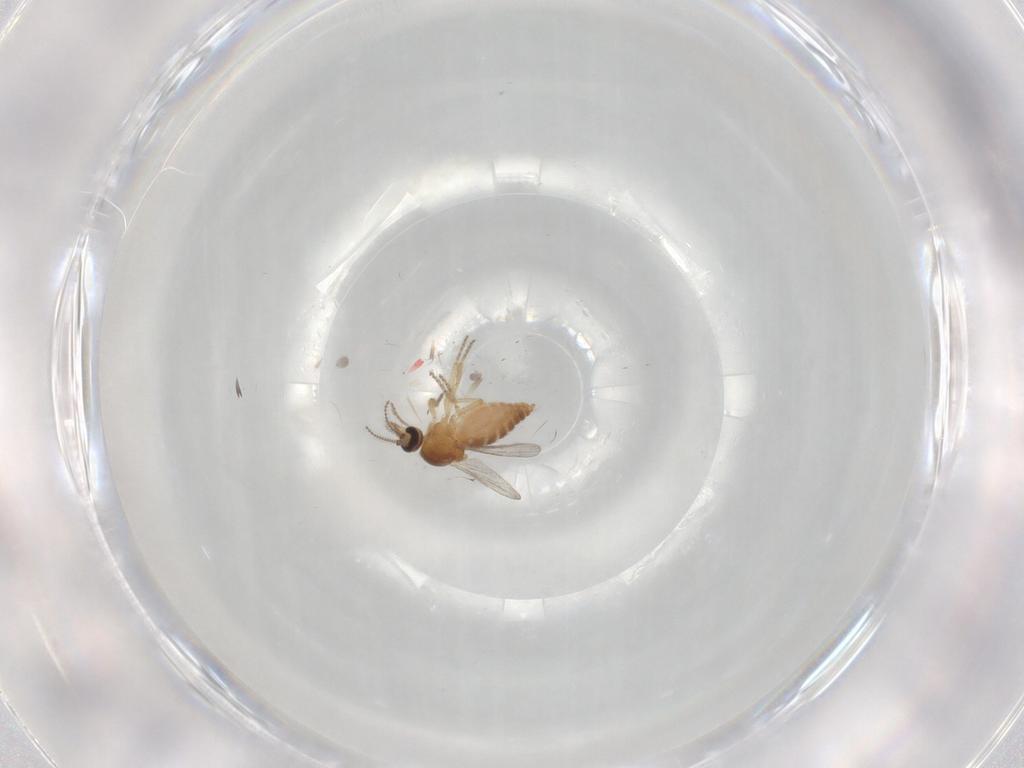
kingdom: Animalia
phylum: Arthropoda
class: Insecta
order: Diptera
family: Ceratopogonidae
